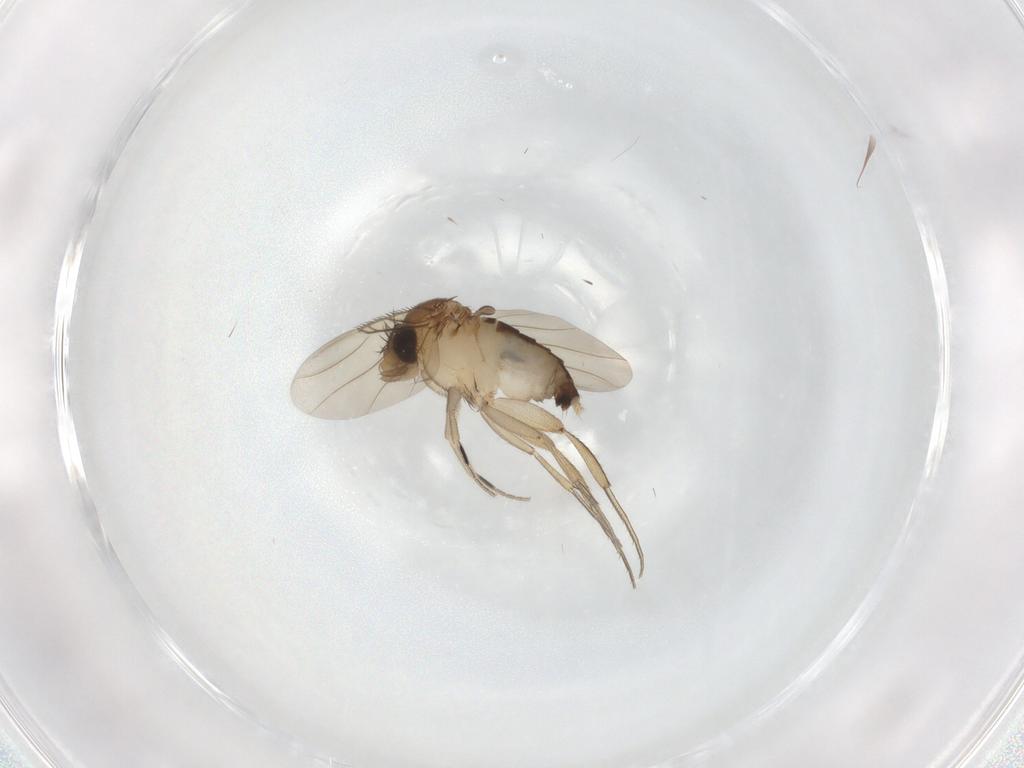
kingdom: Animalia
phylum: Arthropoda
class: Insecta
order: Diptera
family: Phoridae
